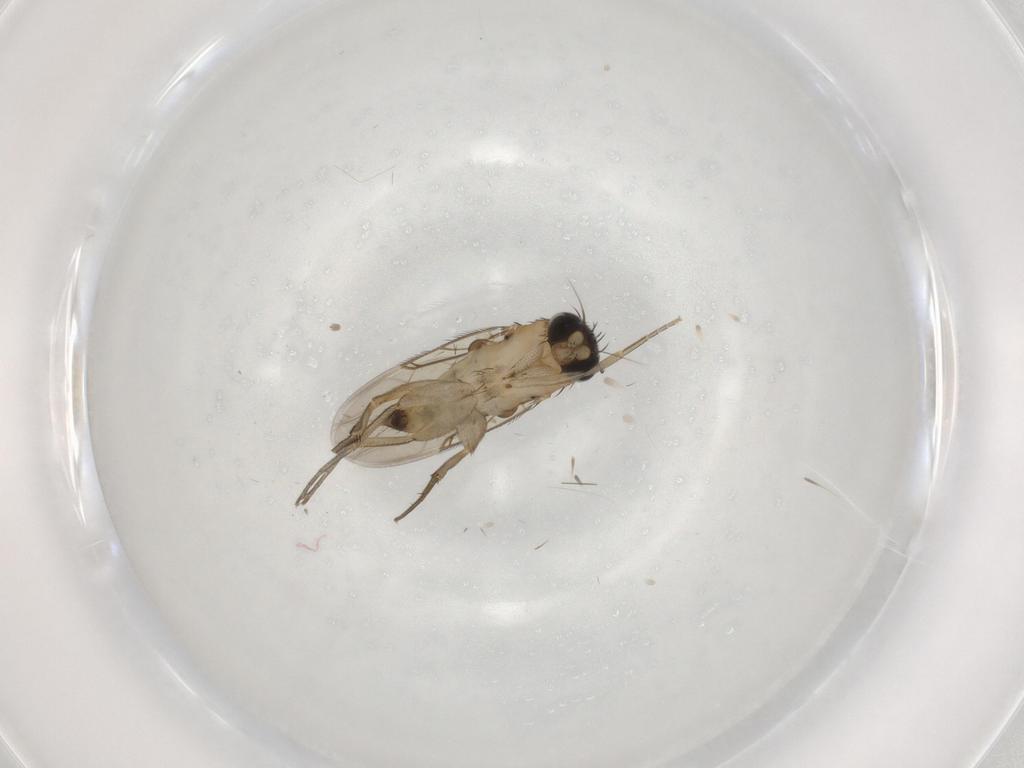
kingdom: Animalia
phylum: Arthropoda
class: Insecta
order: Diptera
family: Phoridae
